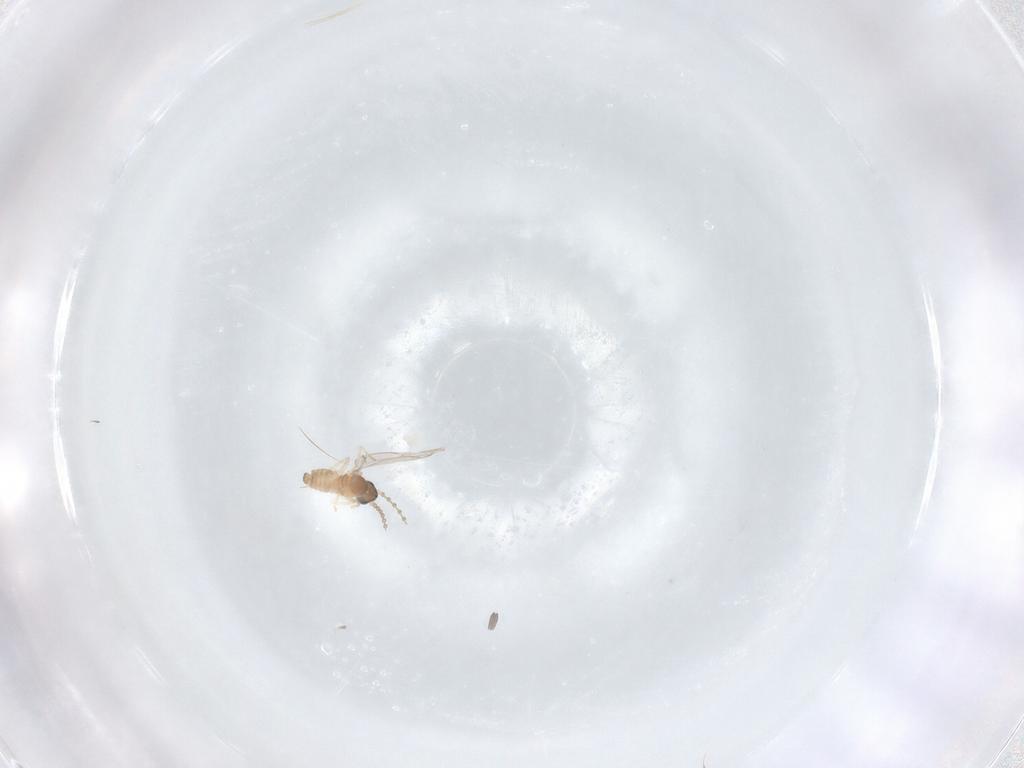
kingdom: Animalia
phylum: Arthropoda
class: Insecta
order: Diptera
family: Cecidomyiidae
